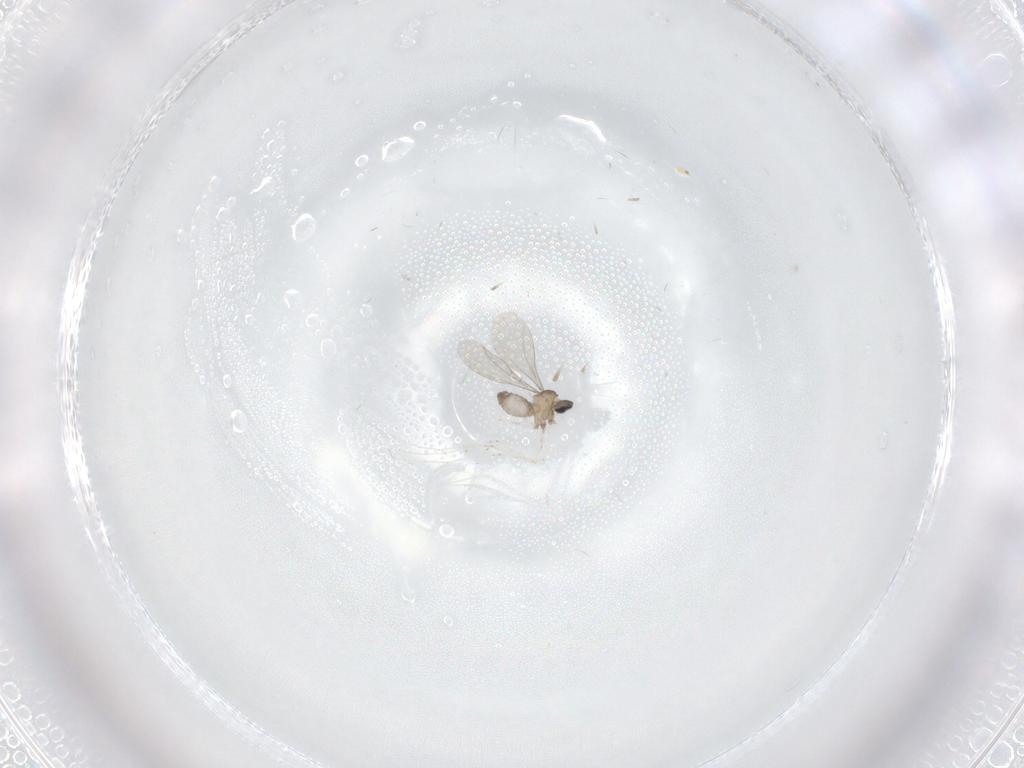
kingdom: Animalia
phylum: Arthropoda
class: Insecta
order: Diptera
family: Cecidomyiidae
